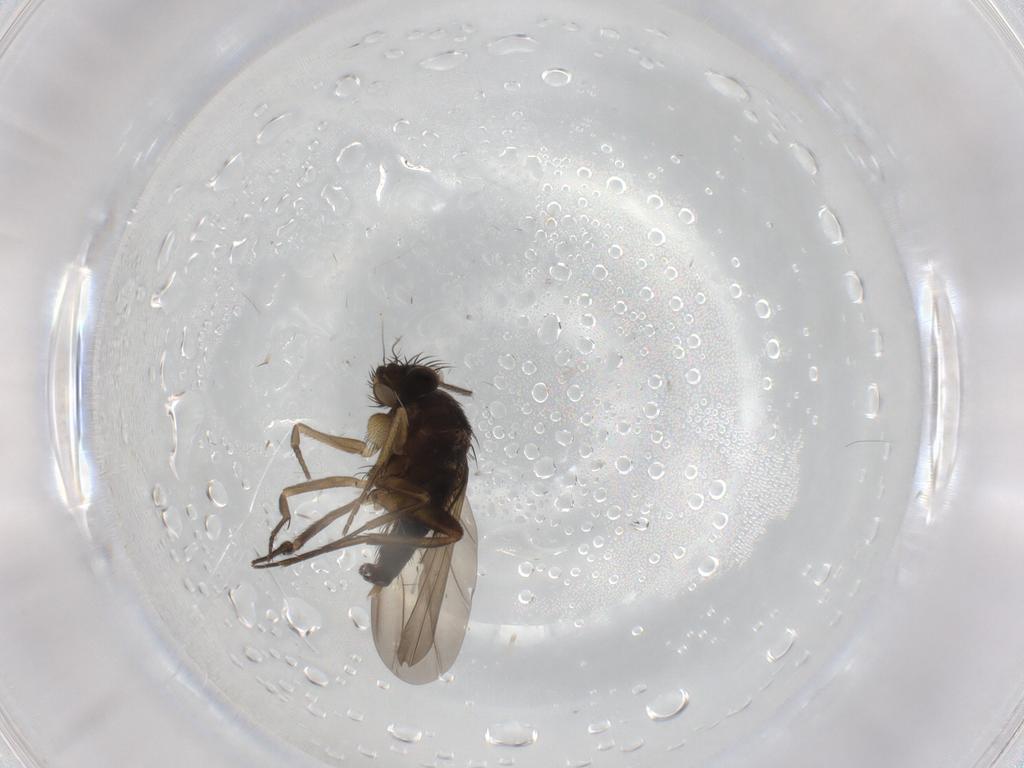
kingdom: Animalia
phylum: Arthropoda
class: Insecta
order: Diptera
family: Phoridae
